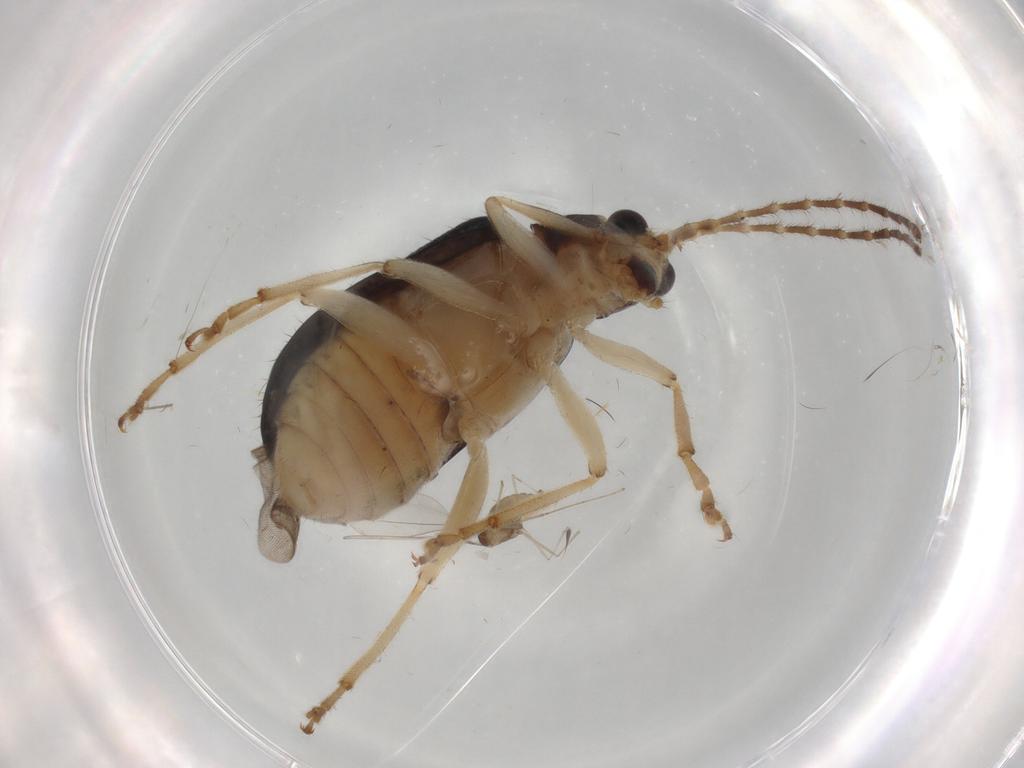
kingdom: Animalia
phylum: Arthropoda
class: Insecta
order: Coleoptera
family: Chrysomelidae
